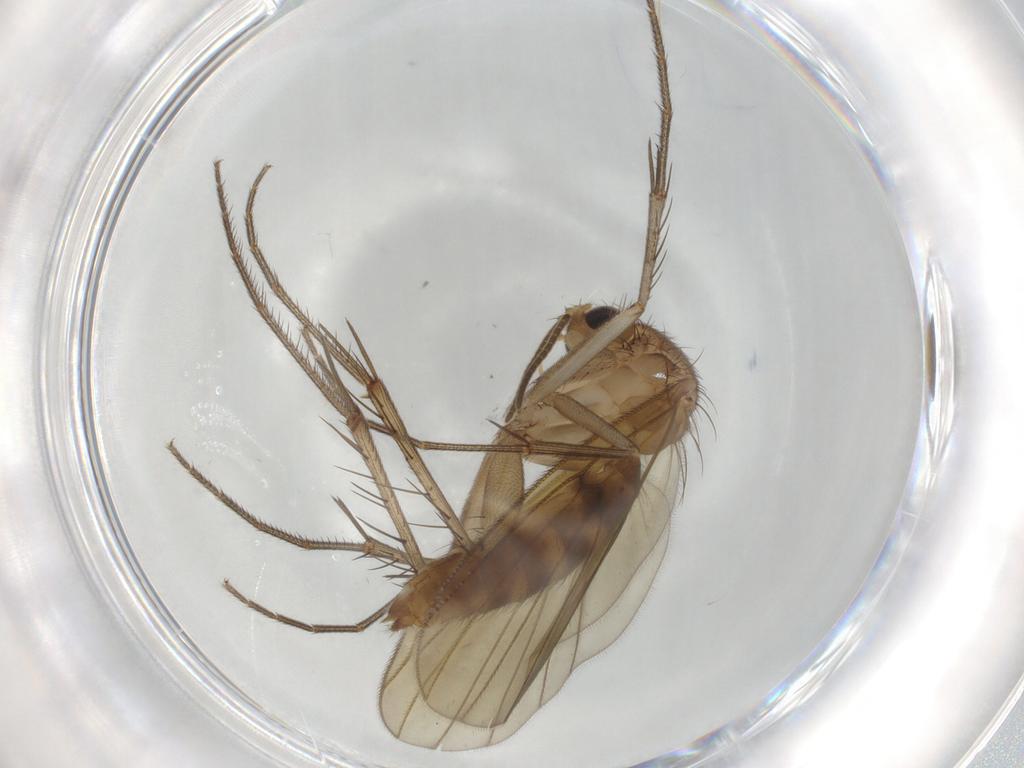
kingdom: Animalia
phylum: Arthropoda
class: Insecta
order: Diptera
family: Mycetophilidae
